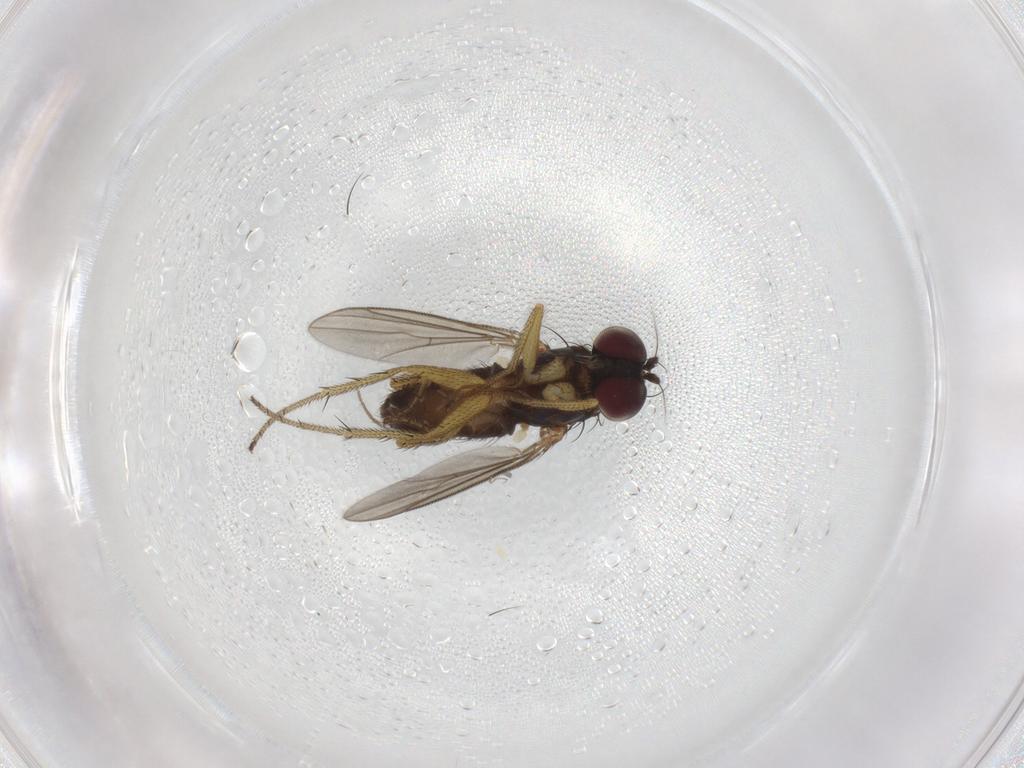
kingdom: Animalia
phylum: Arthropoda
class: Insecta
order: Diptera
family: Dolichopodidae
